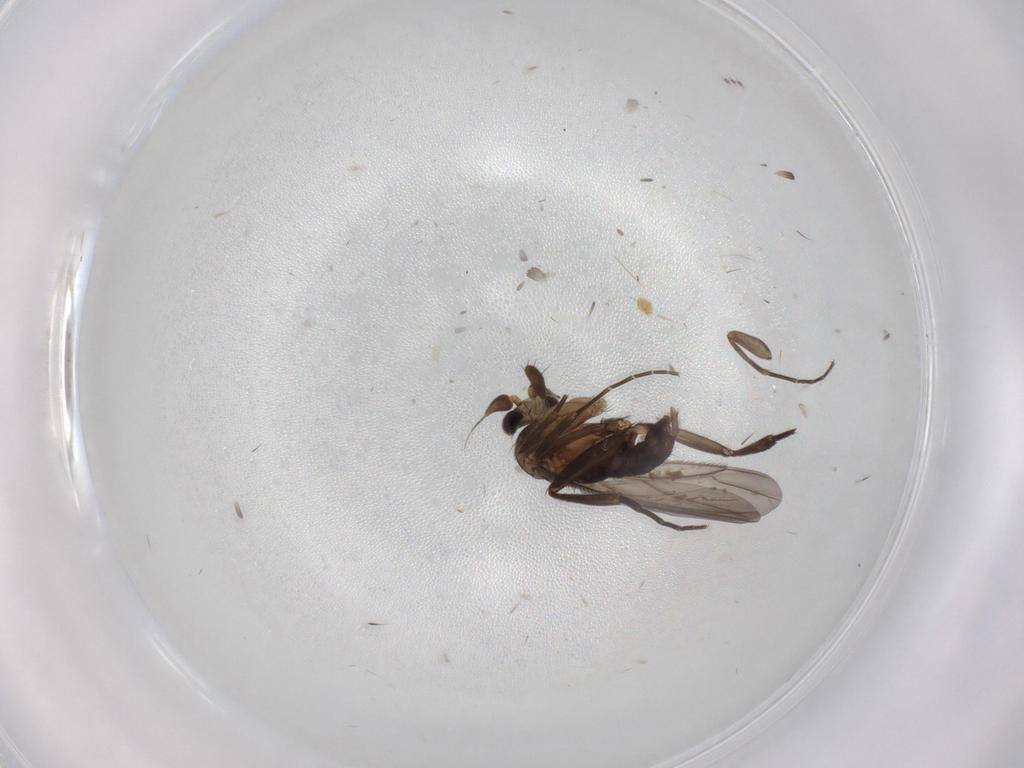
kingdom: Animalia
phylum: Arthropoda
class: Insecta
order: Diptera
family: Phoridae
